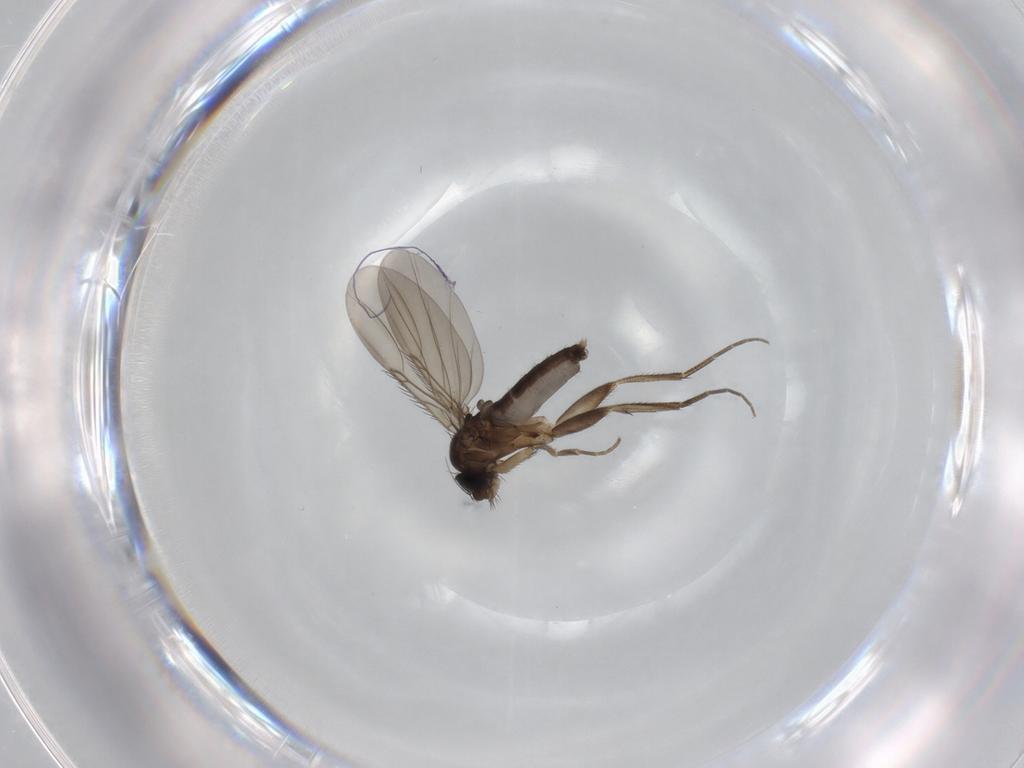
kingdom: Animalia
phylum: Arthropoda
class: Insecta
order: Diptera
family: Phoridae
